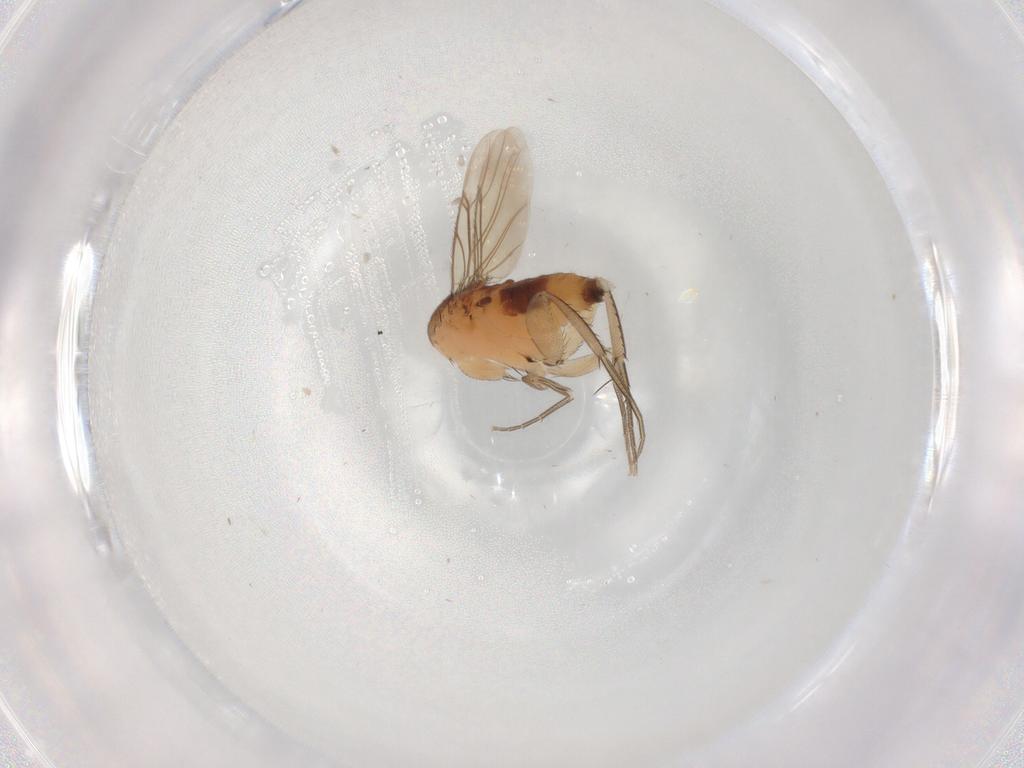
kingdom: Animalia
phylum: Arthropoda
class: Insecta
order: Diptera
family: Phoridae
